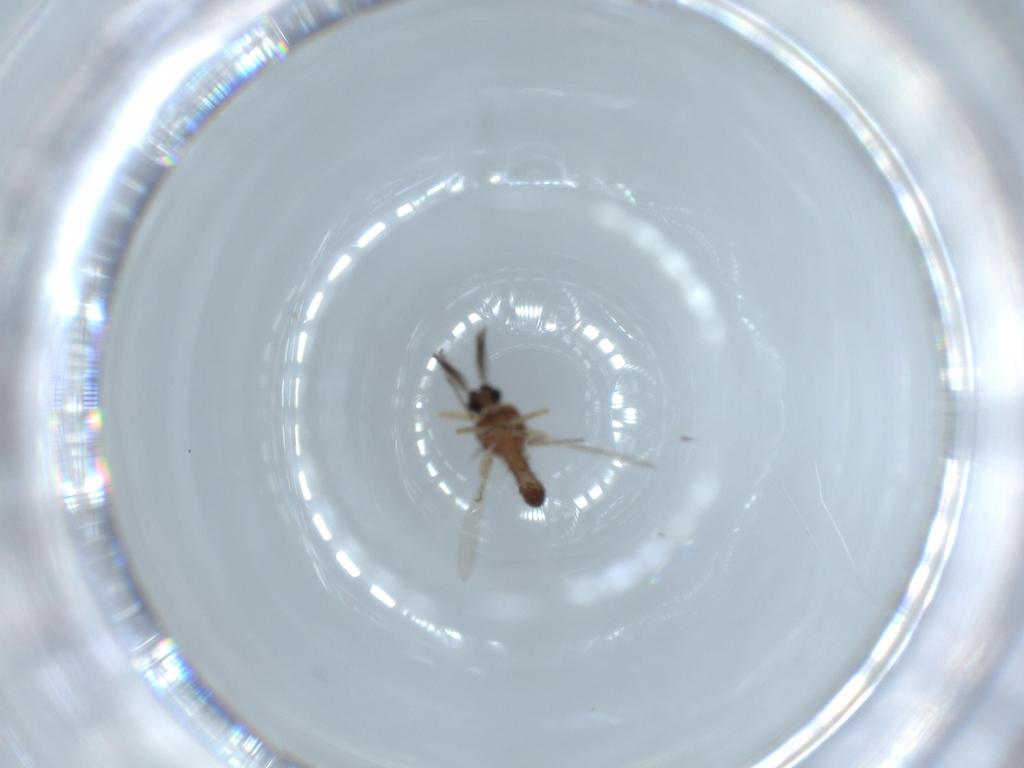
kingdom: Animalia
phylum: Arthropoda
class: Insecta
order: Diptera
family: Ceratopogonidae
